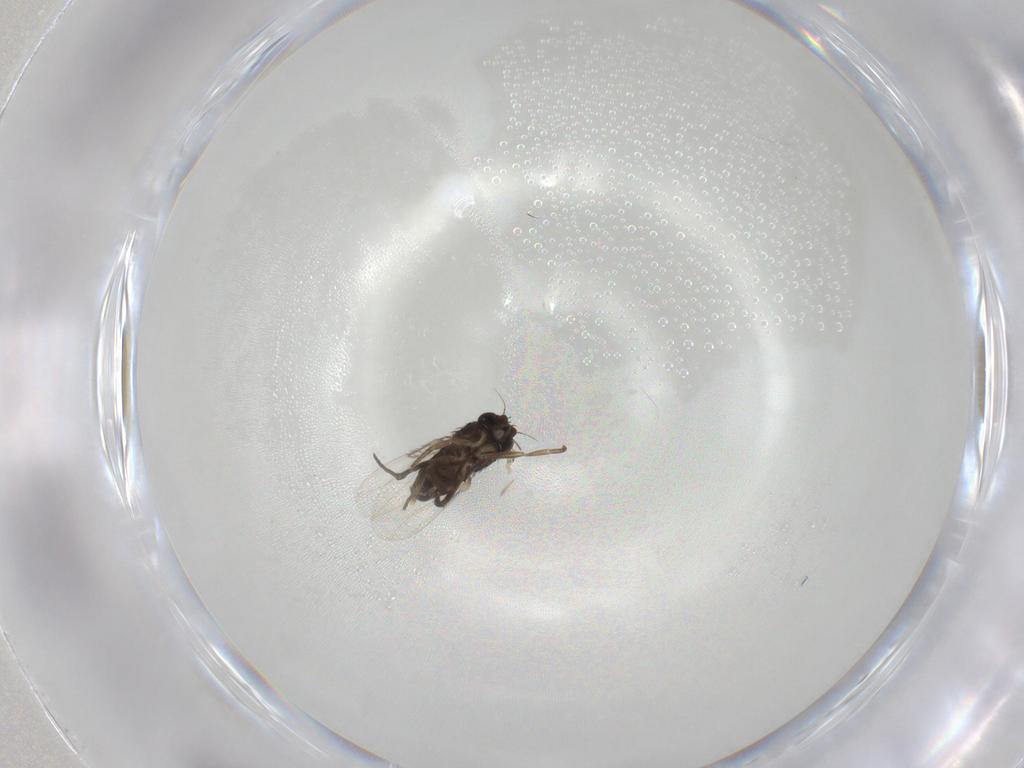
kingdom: Animalia
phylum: Arthropoda
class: Insecta
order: Diptera
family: Phoridae
